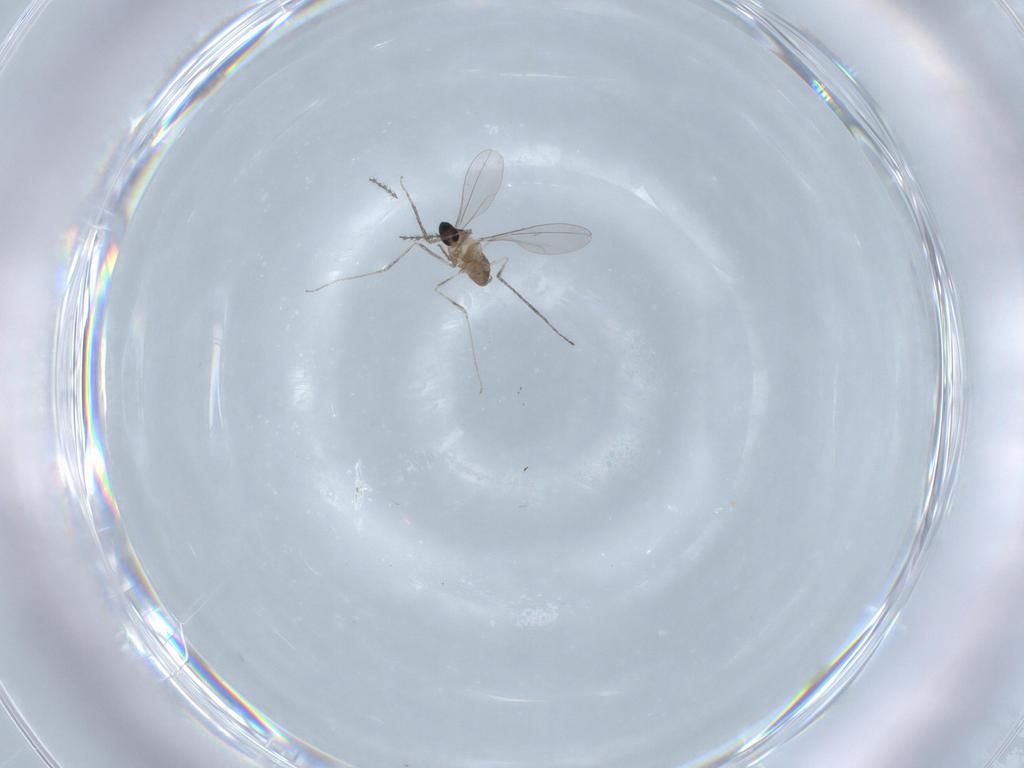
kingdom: Animalia
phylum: Arthropoda
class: Insecta
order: Diptera
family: Cecidomyiidae
